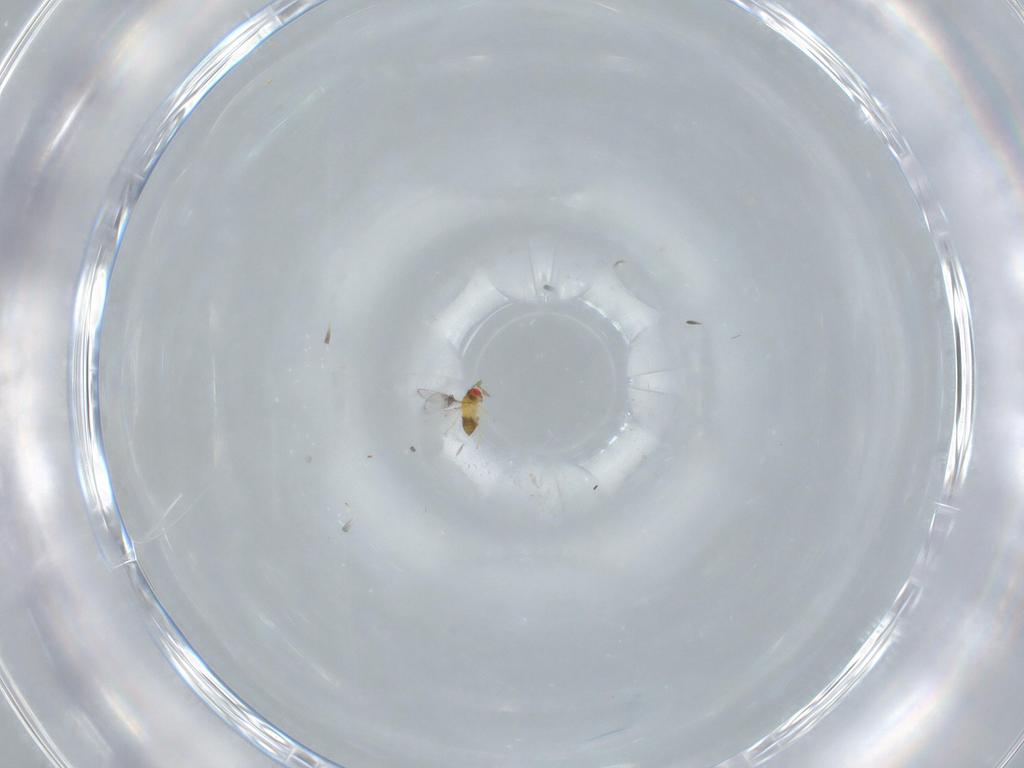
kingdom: Animalia
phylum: Arthropoda
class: Insecta
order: Hymenoptera
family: Trichogrammatidae
